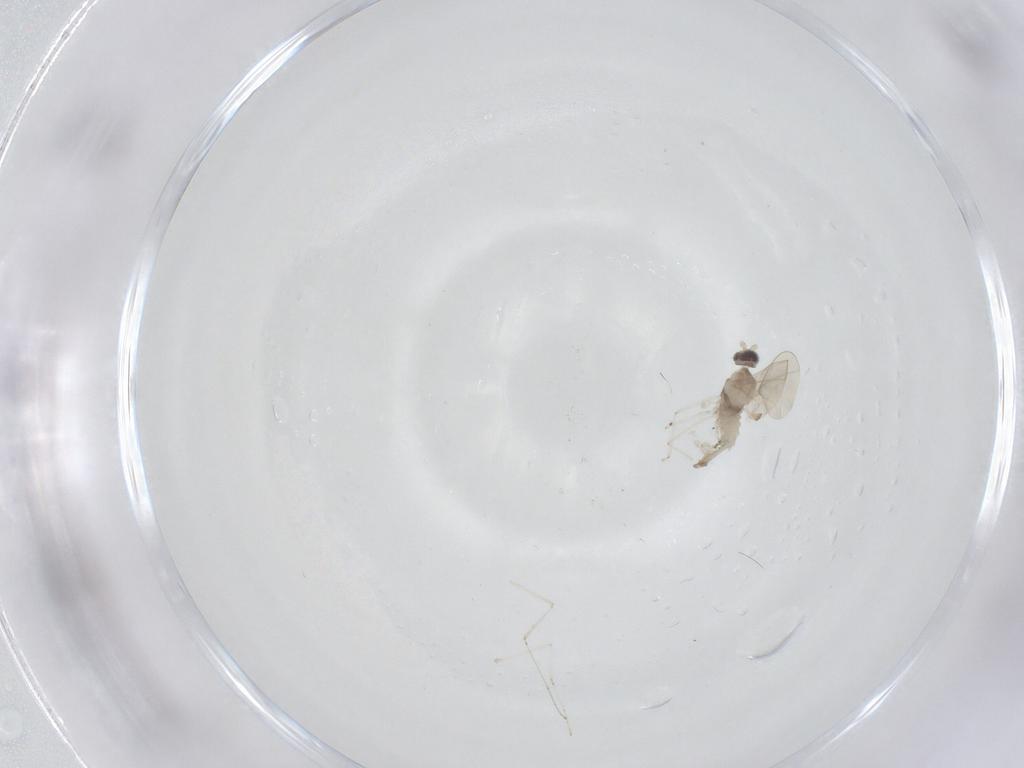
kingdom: Animalia
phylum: Arthropoda
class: Insecta
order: Diptera
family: Cecidomyiidae
